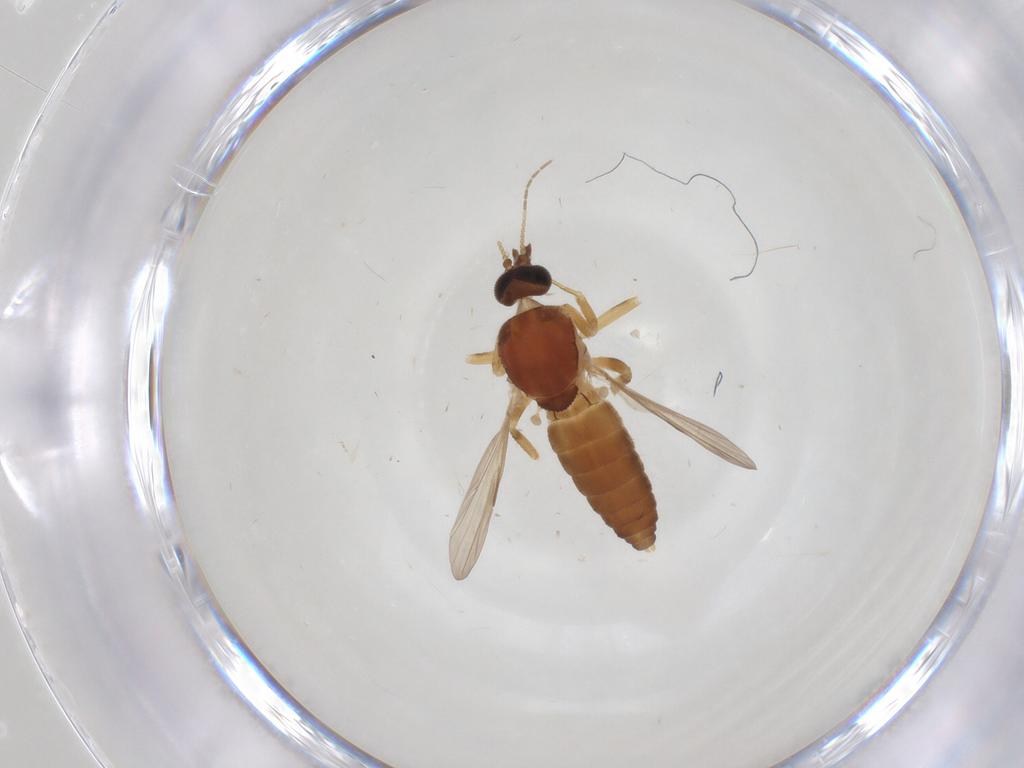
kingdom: Animalia
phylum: Arthropoda
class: Insecta
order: Diptera
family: Ceratopogonidae
